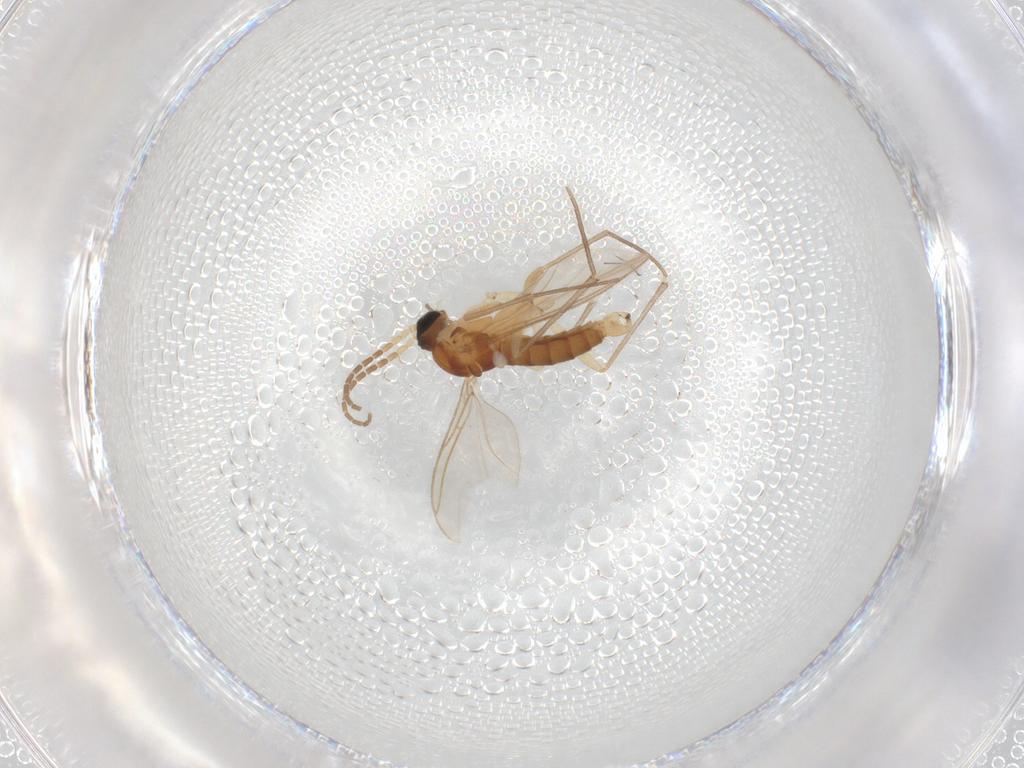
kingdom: Animalia
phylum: Arthropoda
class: Insecta
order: Diptera
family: Sciaridae
